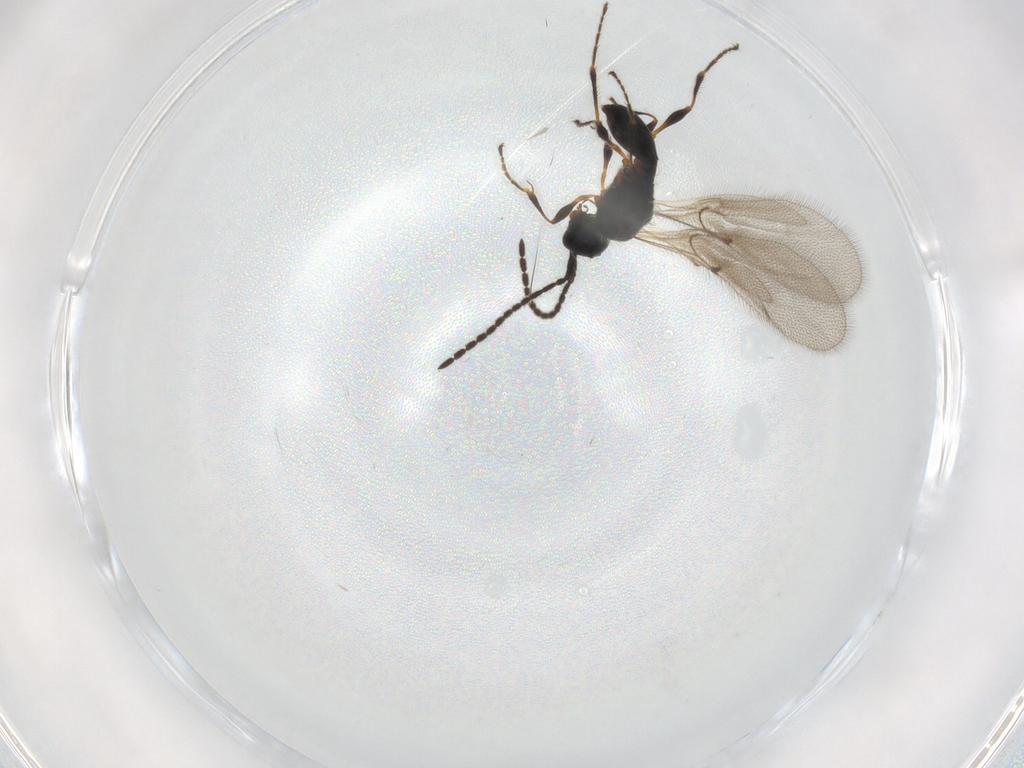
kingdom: Animalia
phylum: Arthropoda
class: Insecta
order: Hymenoptera
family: Diapriidae
